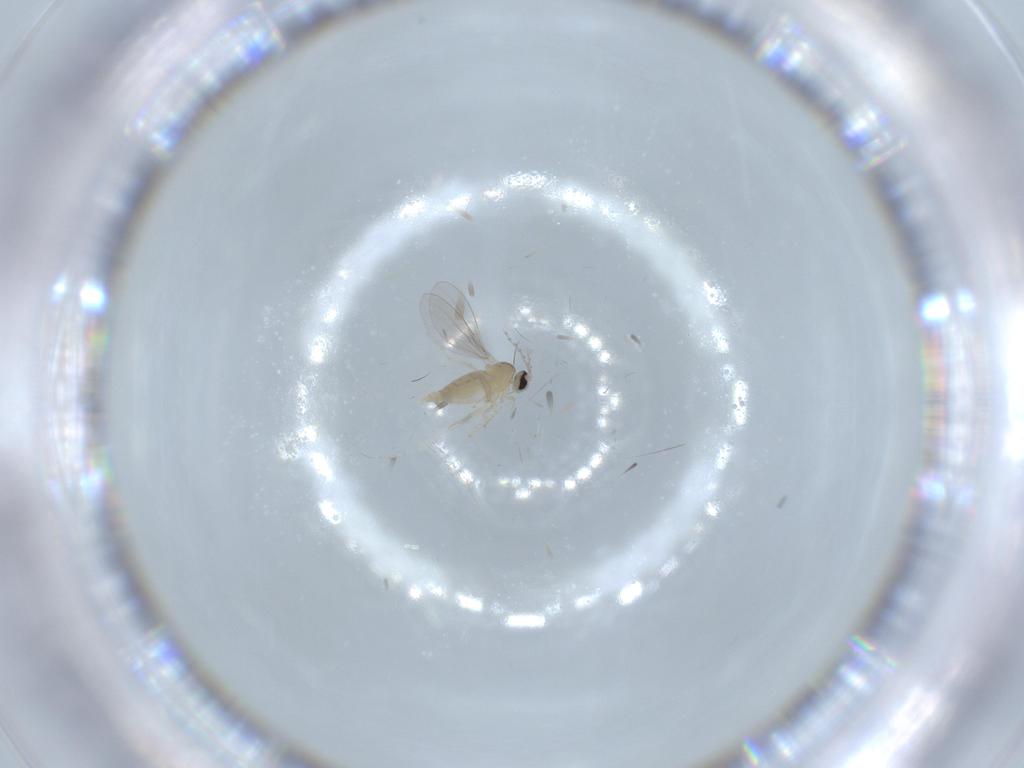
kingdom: Animalia
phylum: Arthropoda
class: Insecta
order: Diptera
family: Cecidomyiidae
